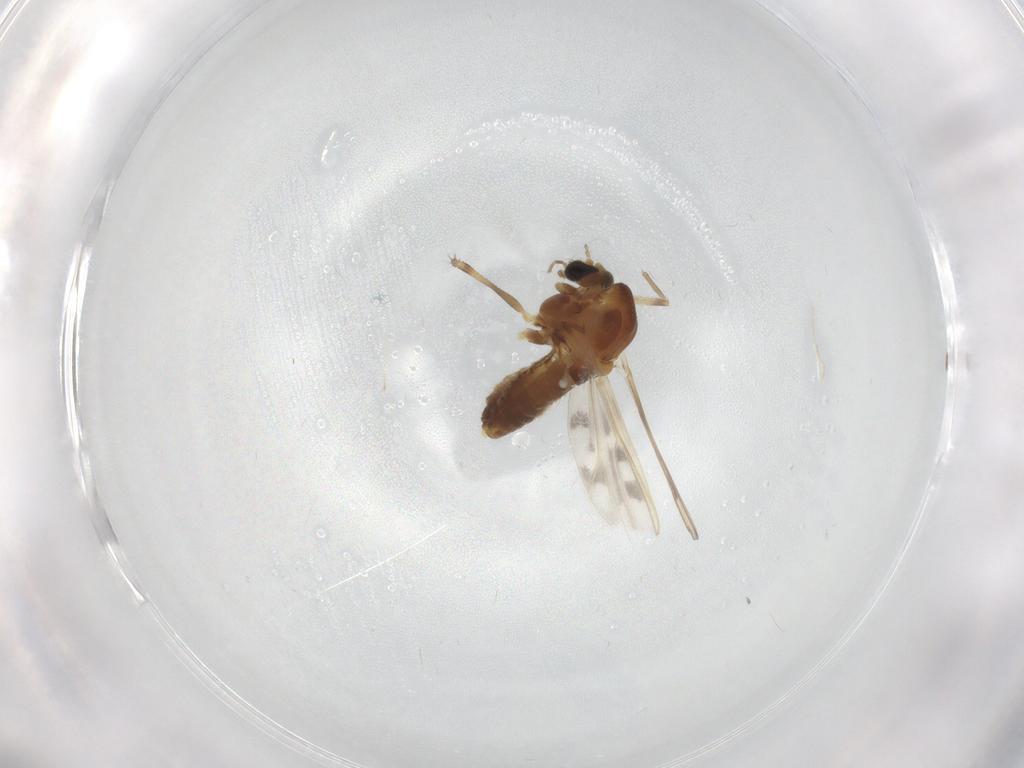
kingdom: Animalia
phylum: Arthropoda
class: Insecta
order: Diptera
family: Chironomidae
